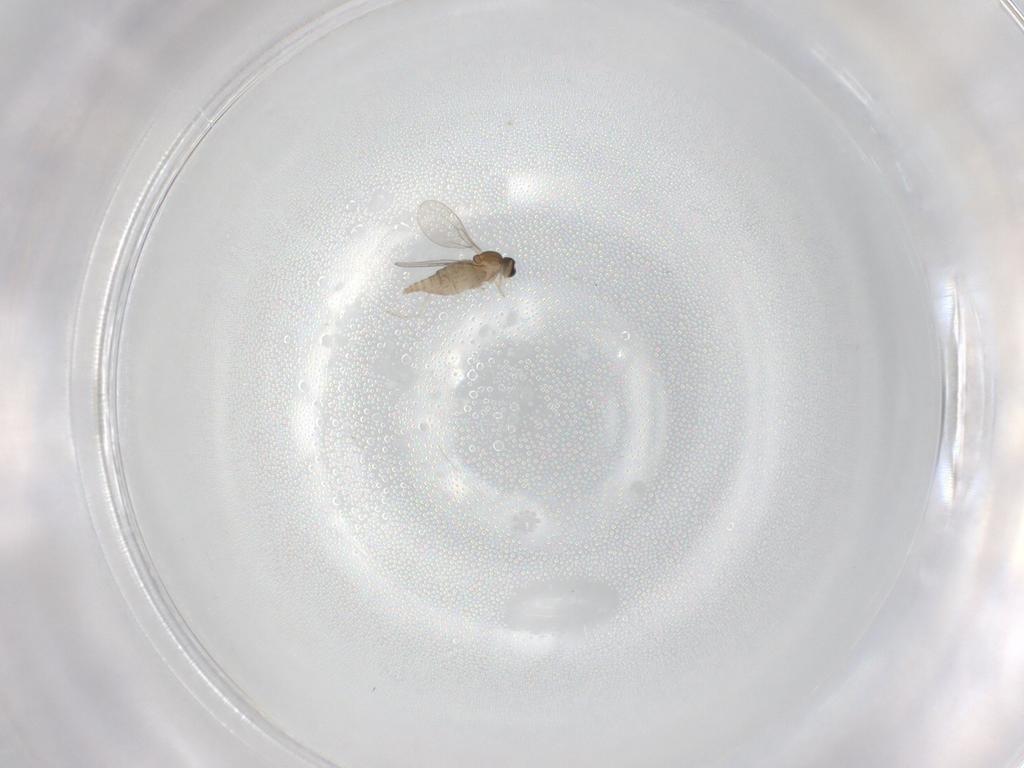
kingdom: Animalia
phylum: Arthropoda
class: Insecta
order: Diptera
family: Cecidomyiidae
